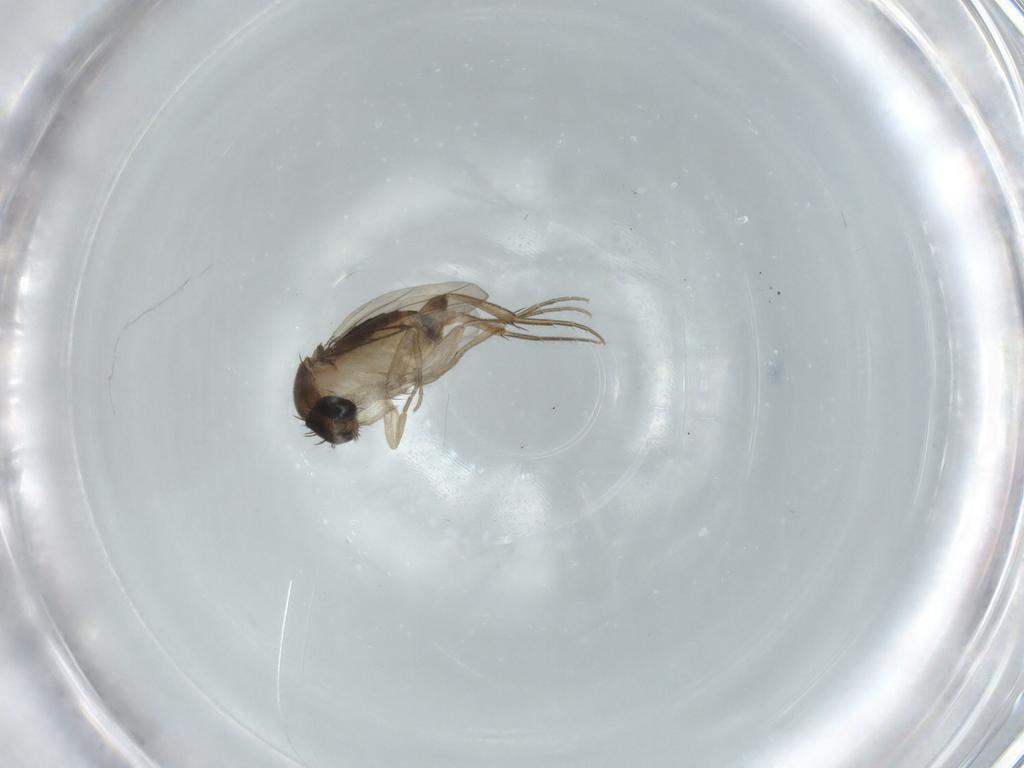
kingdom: Animalia
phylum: Arthropoda
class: Insecta
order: Diptera
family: Phoridae
